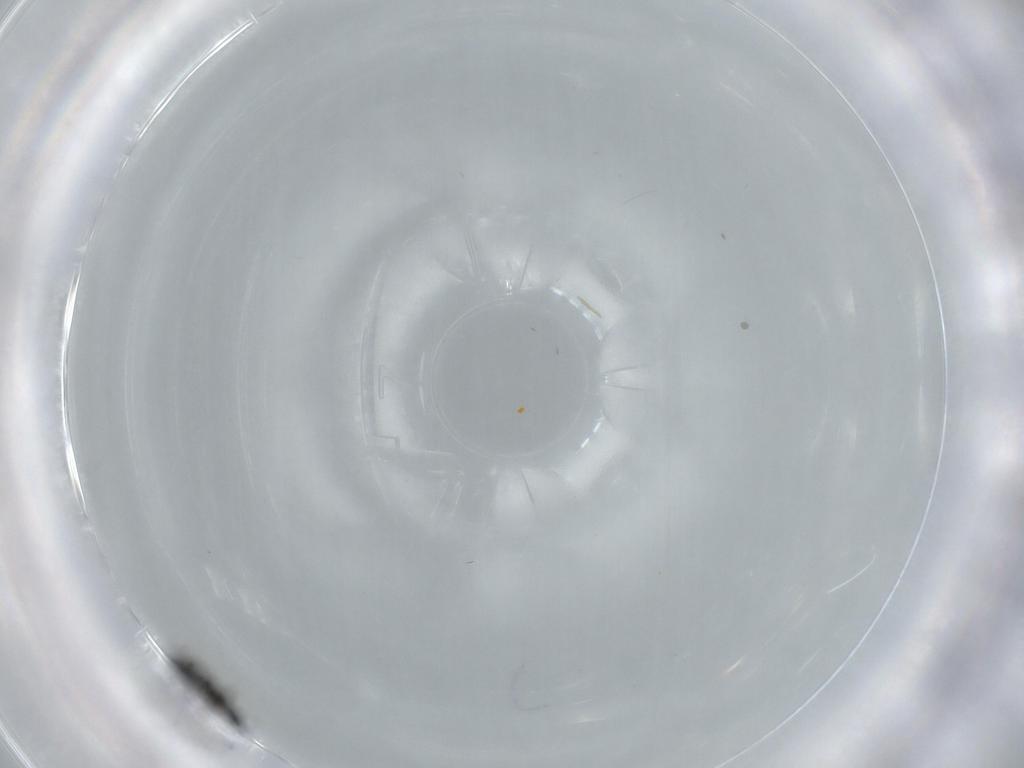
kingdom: Animalia
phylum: Arthropoda
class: Insecta
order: Hymenoptera
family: Ceraphronidae
